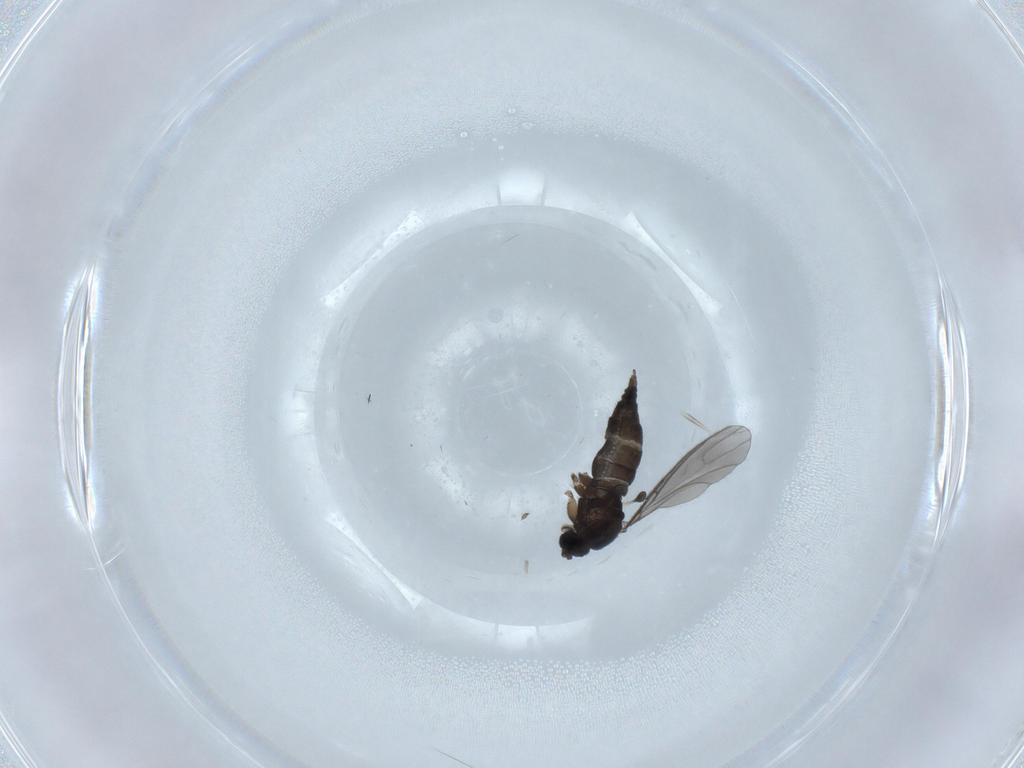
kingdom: Animalia
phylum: Arthropoda
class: Insecta
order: Diptera
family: Sciaridae
